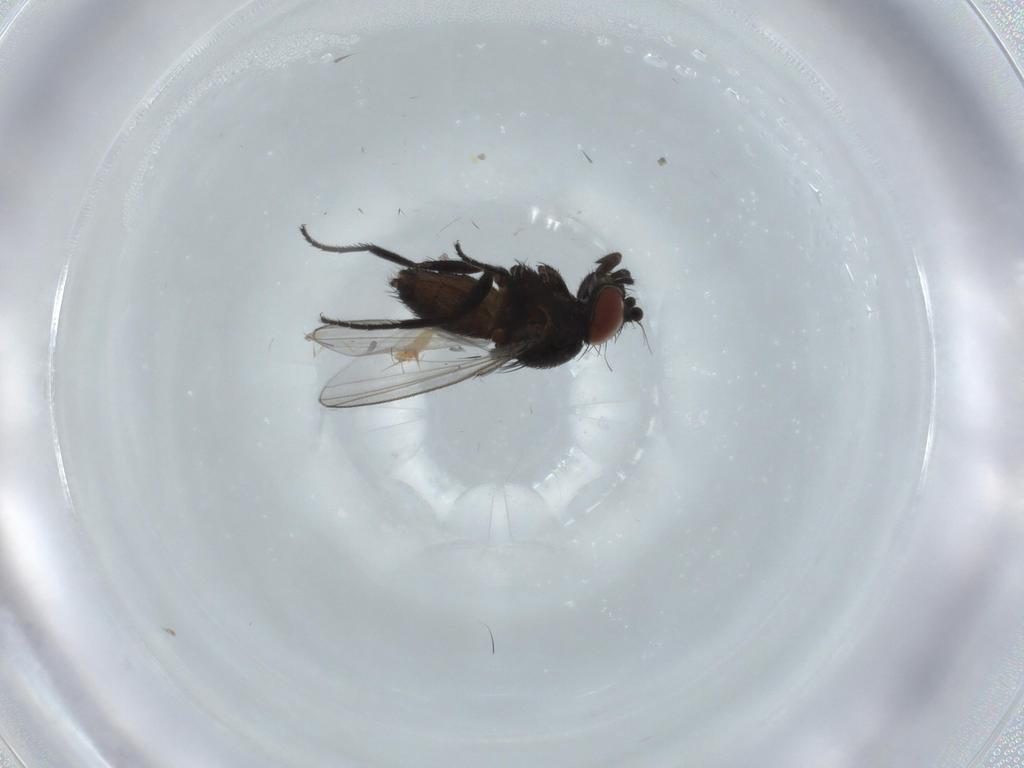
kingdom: Animalia
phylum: Arthropoda
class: Insecta
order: Diptera
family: Milichiidae
